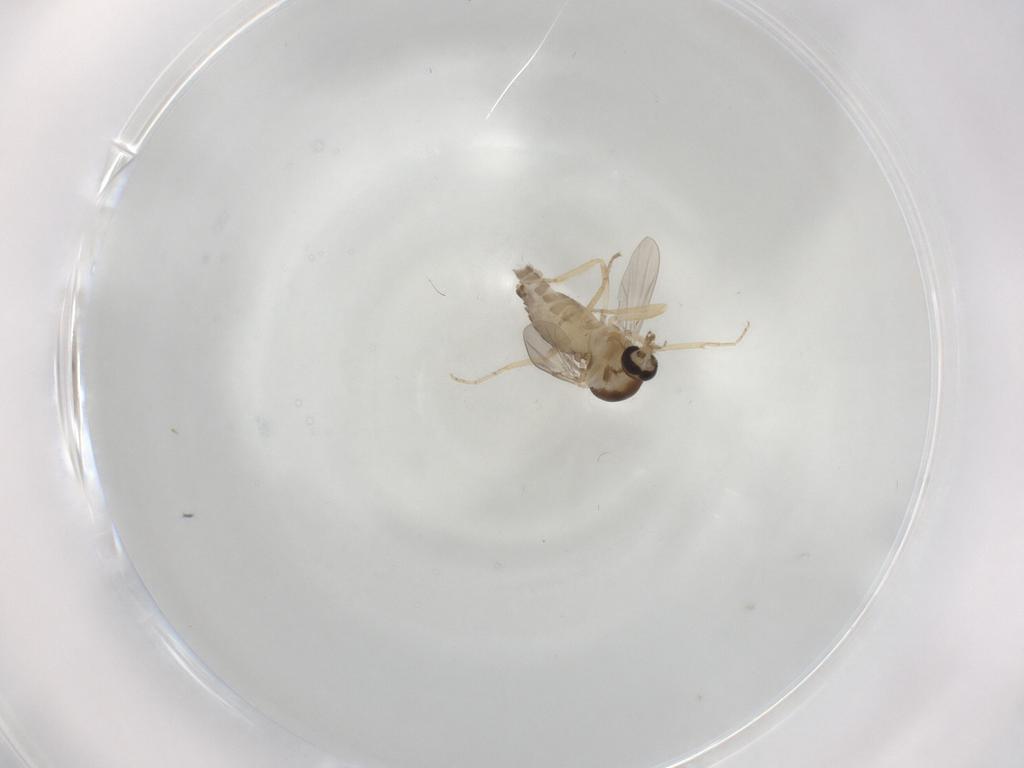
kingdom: Animalia
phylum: Arthropoda
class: Insecta
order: Diptera
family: Ceratopogonidae
